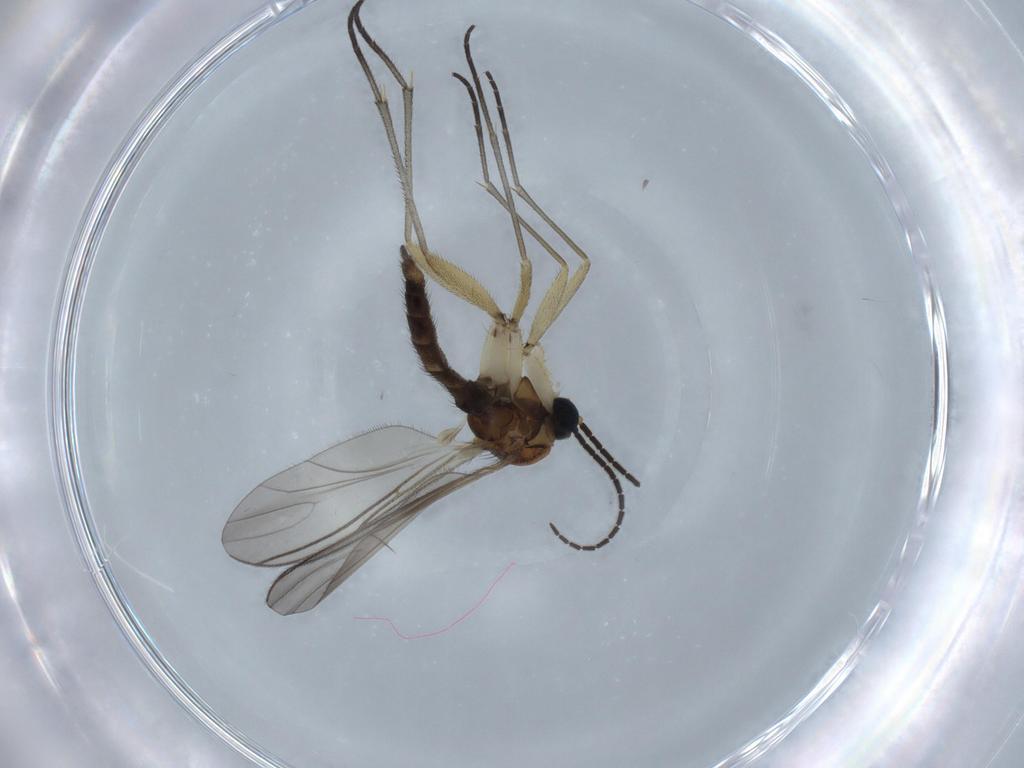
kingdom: Animalia
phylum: Arthropoda
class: Insecta
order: Diptera
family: Sciaridae
